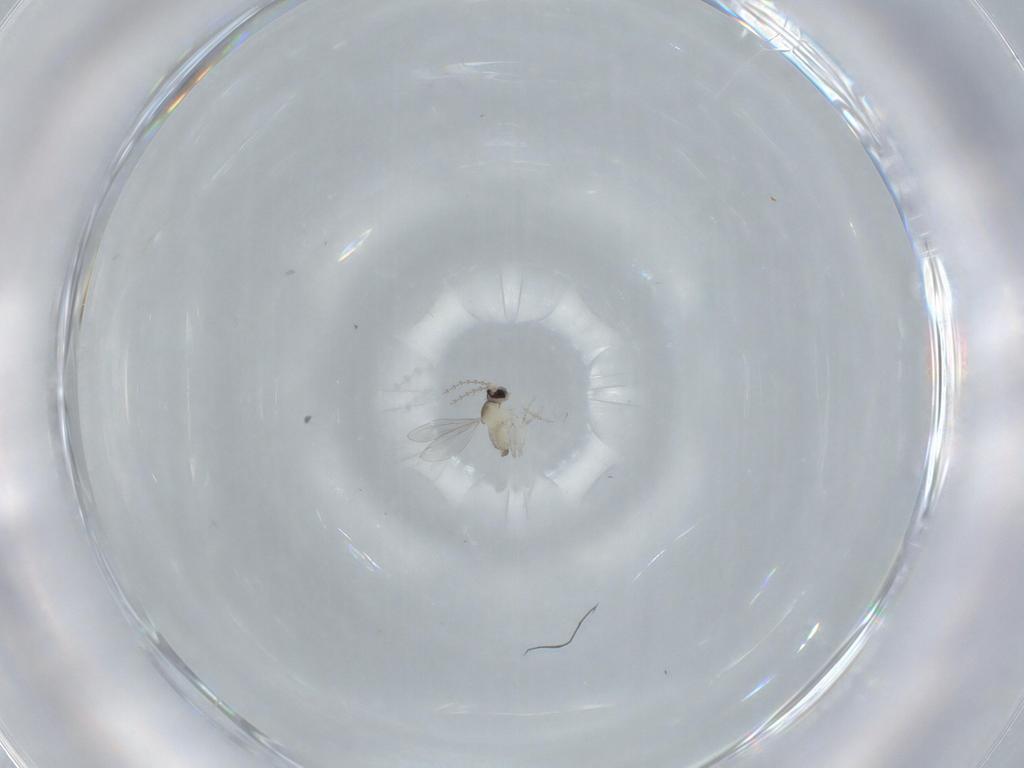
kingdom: Animalia
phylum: Arthropoda
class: Insecta
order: Diptera
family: Cecidomyiidae
